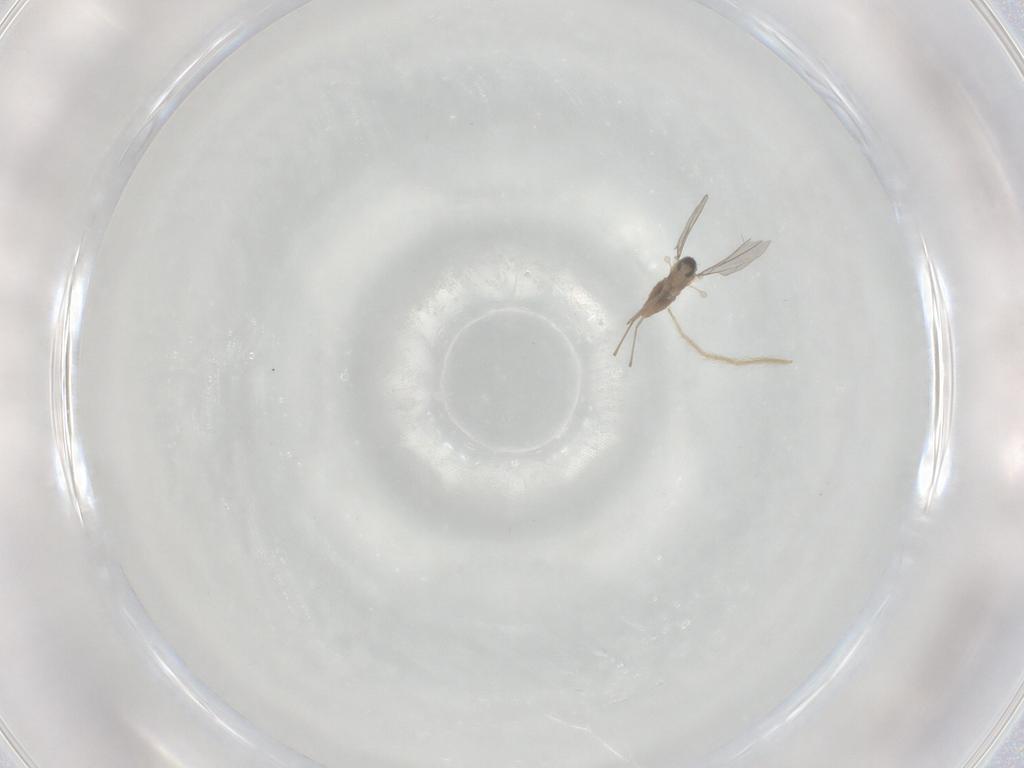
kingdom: Animalia
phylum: Arthropoda
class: Insecta
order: Diptera
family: Cecidomyiidae
